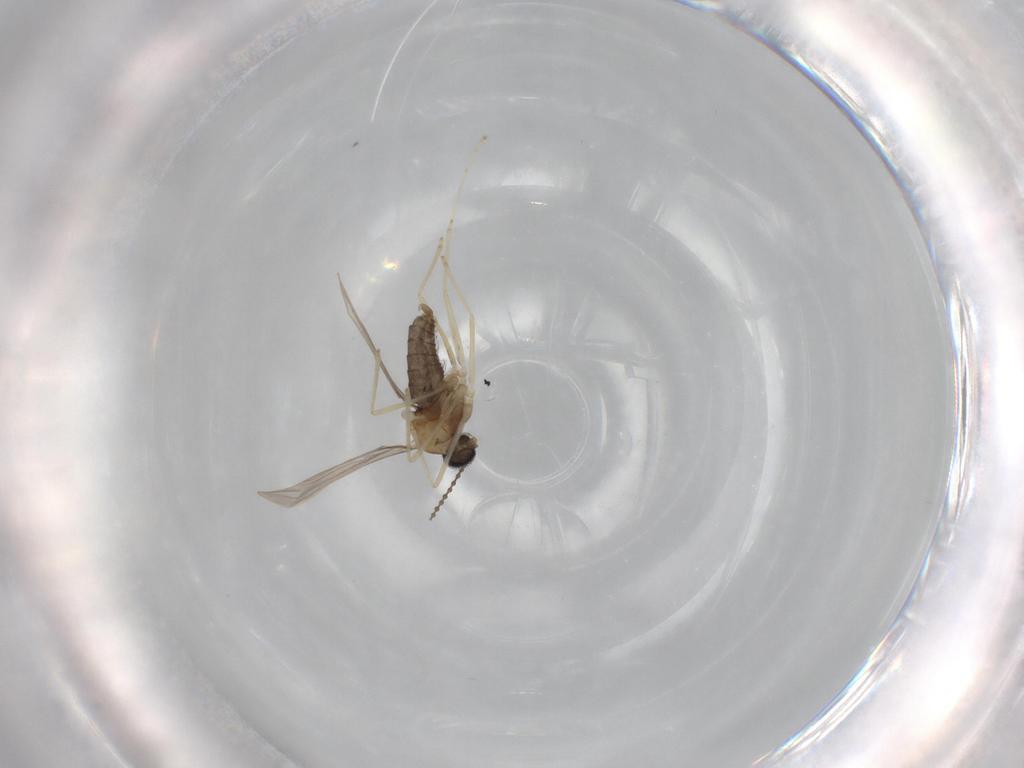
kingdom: Animalia
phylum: Arthropoda
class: Insecta
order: Diptera
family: Cecidomyiidae
